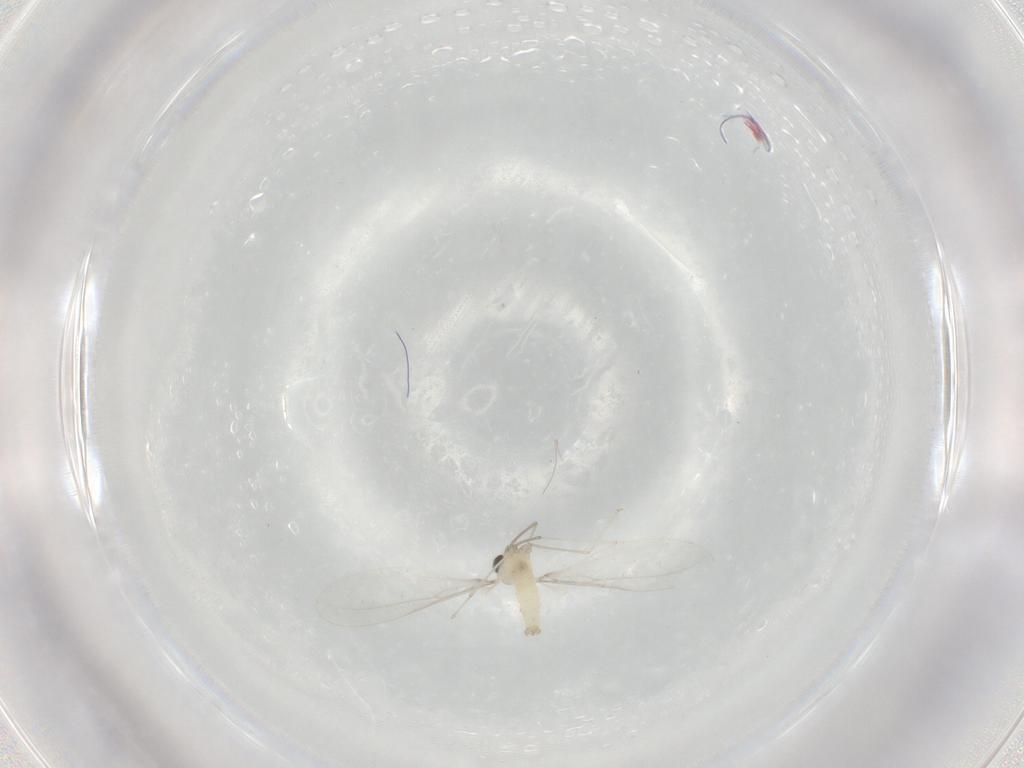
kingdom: Animalia
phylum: Arthropoda
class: Insecta
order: Diptera
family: Cecidomyiidae
